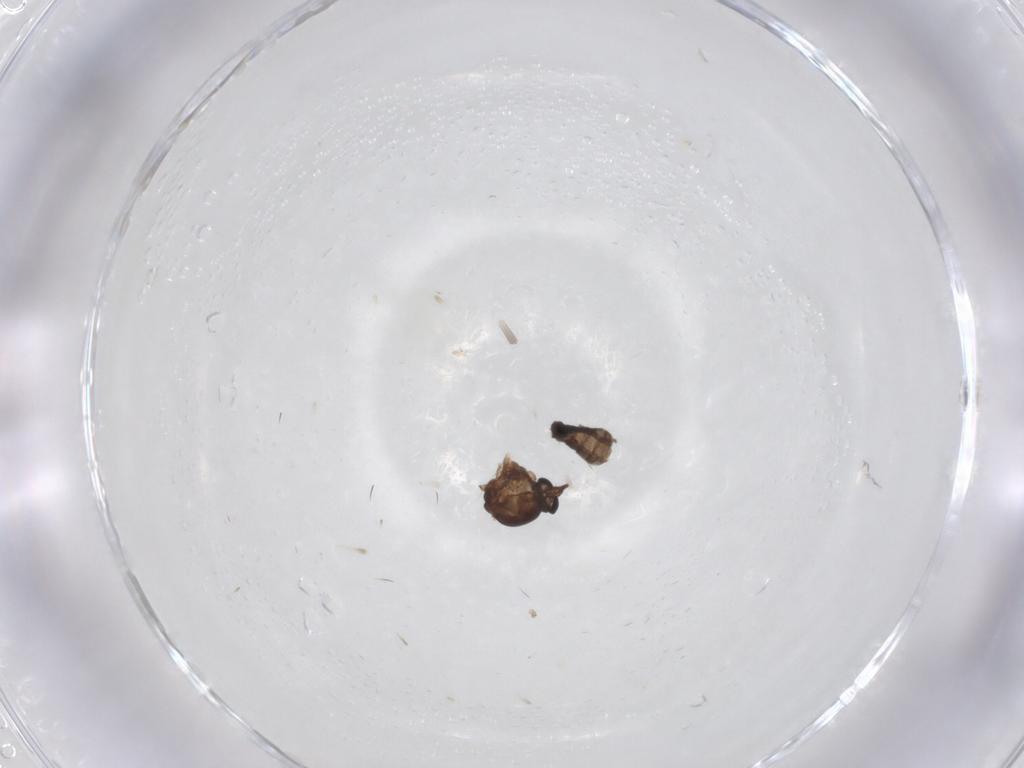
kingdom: Animalia
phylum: Arthropoda
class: Insecta
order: Diptera
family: Ceratopogonidae
